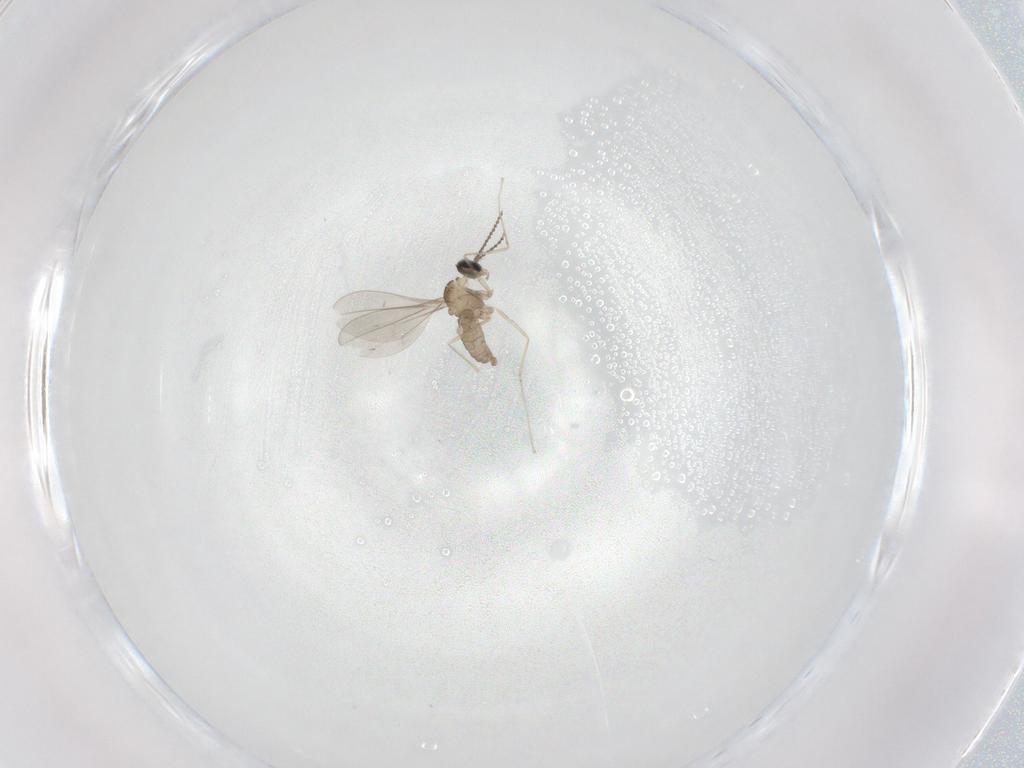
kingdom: Animalia
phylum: Arthropoda
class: Insecta
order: Diptera
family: Cecidomyiidae
